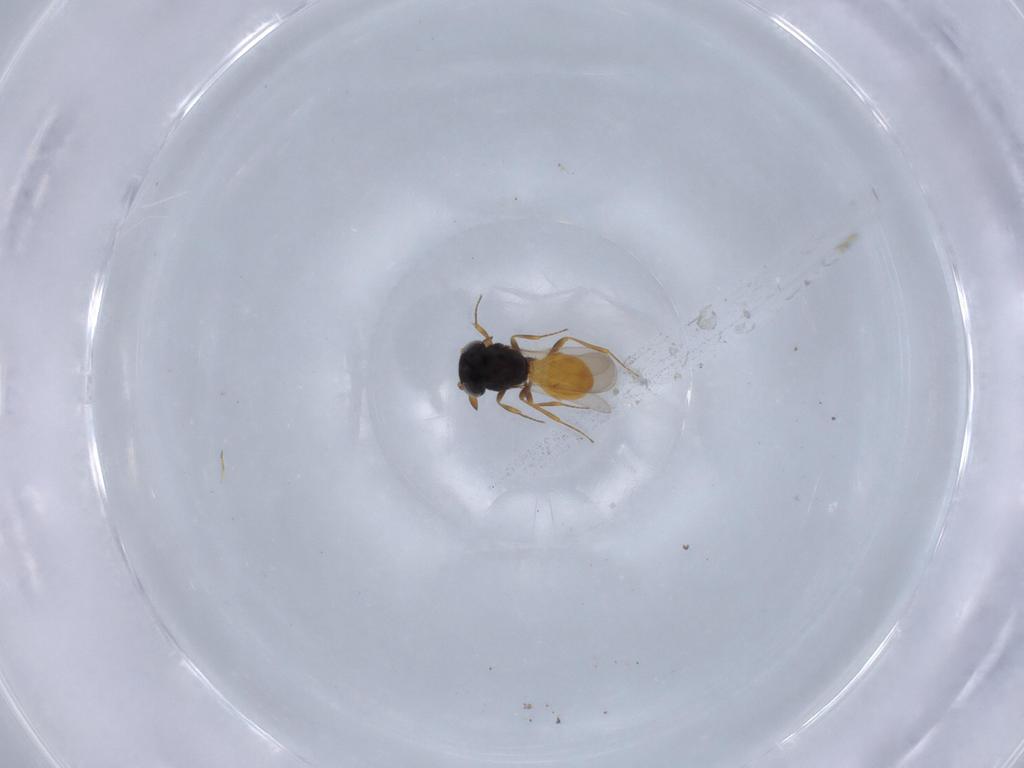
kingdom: Animalia
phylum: Arthropoda
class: Insecta
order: Hymenoptera
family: Scelionidae
